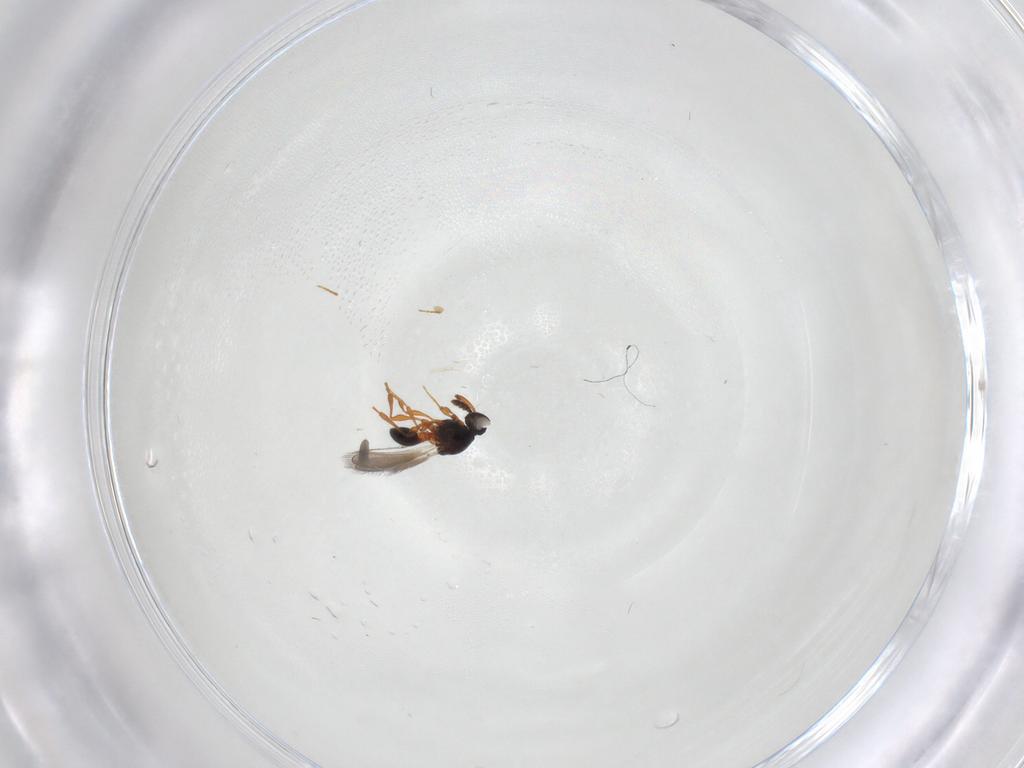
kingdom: Animalia
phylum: Arthropoda
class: Insecta
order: Hymenoptera
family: Platygastridae
